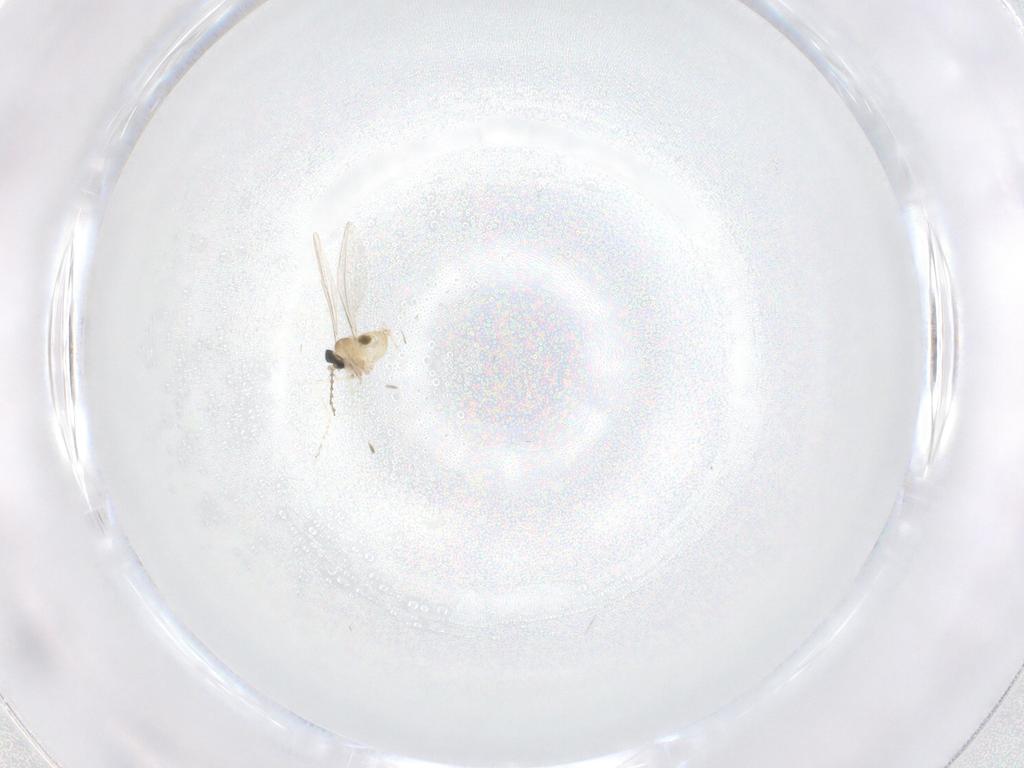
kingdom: Animalia
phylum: Arthropoda
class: Insecta
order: Diptera
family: Cecidomyiidae
